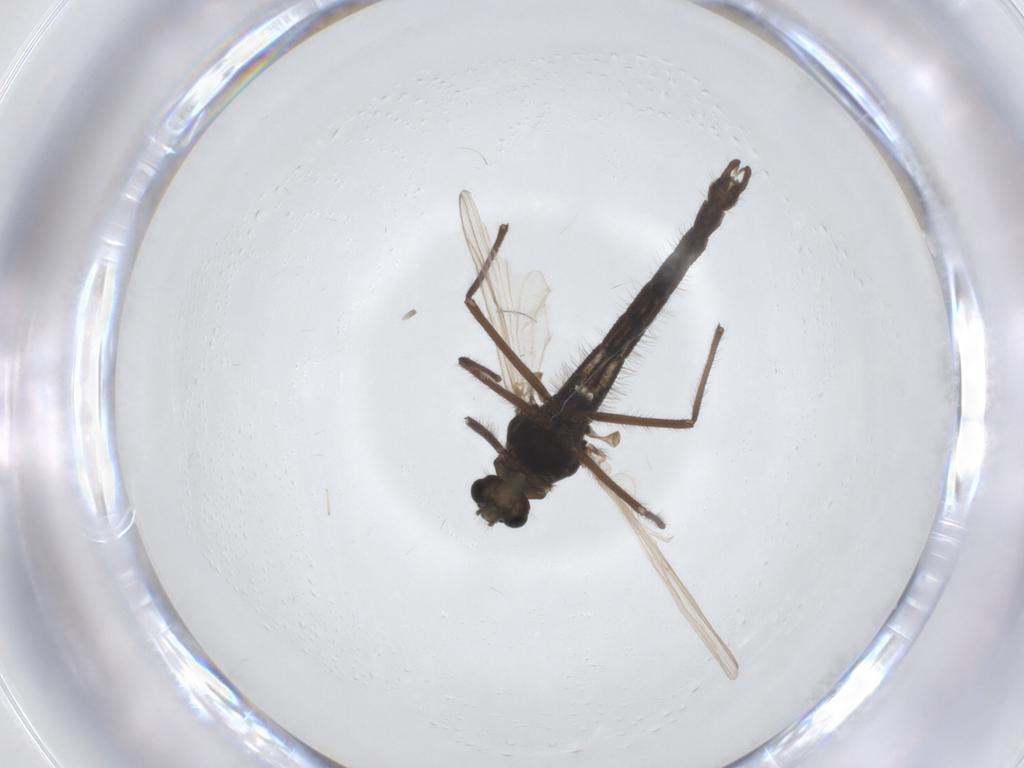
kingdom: Animalia
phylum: Arthropoda
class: Insecta
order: Diptera
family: Chironomidae
